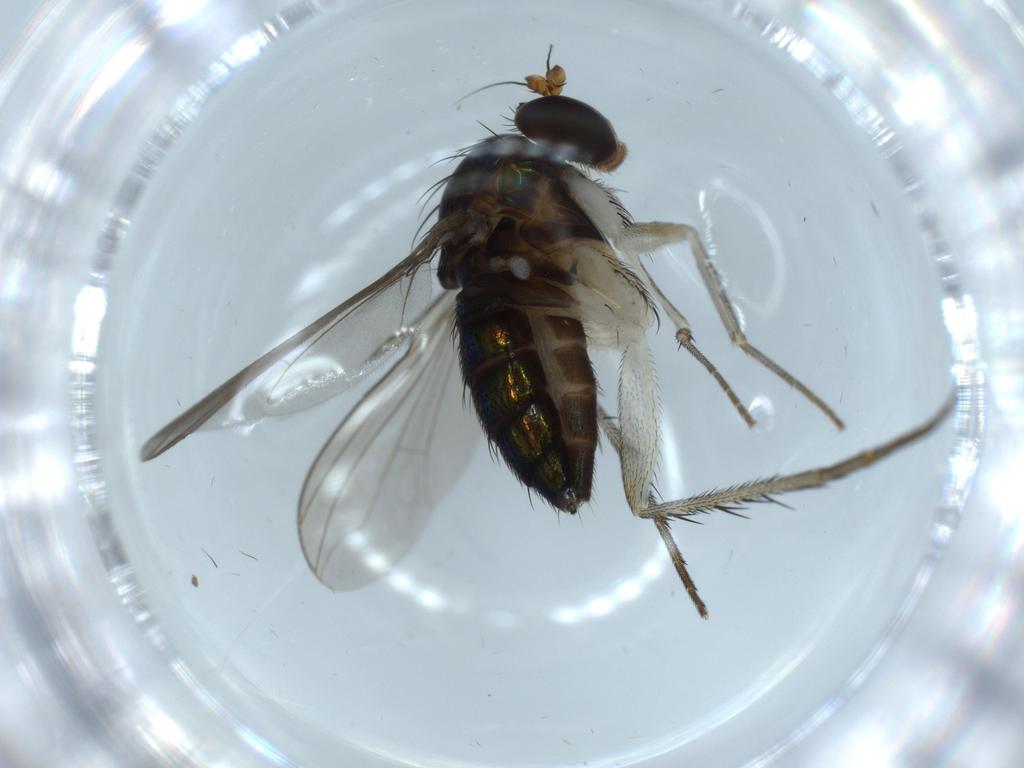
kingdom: Animalia
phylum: Arthropoda
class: Insecta
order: Diptera
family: Dolichopodidae
